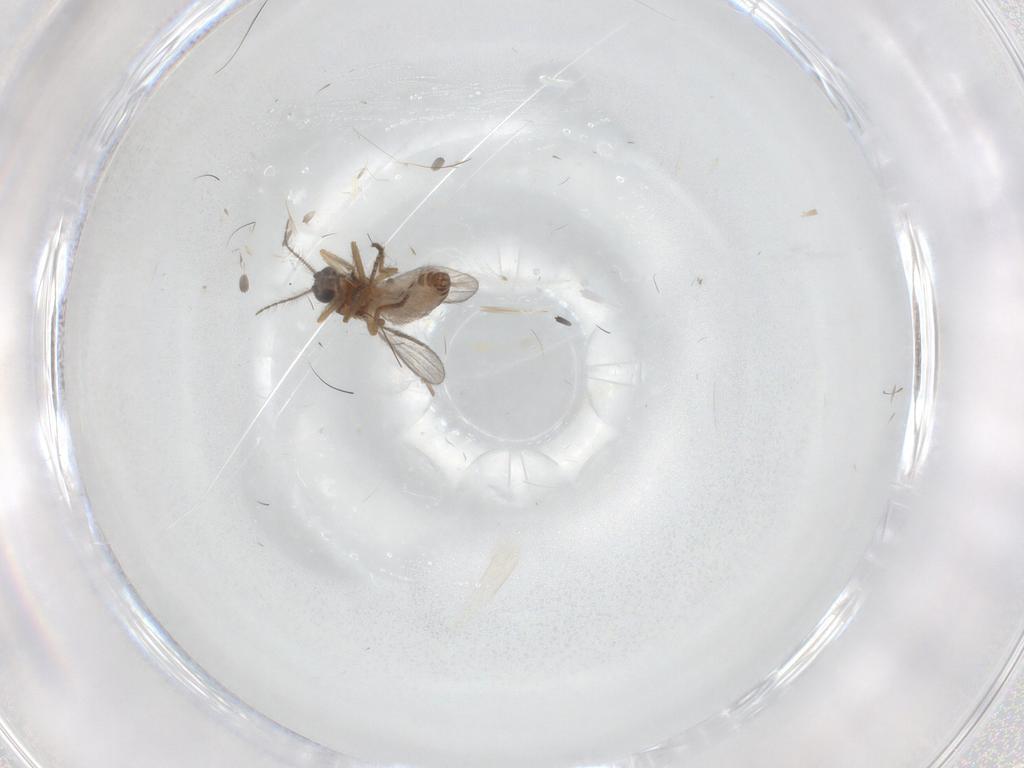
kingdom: Animalia
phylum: Arthropoda
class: Insecta
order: Diptera
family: Ceratopogonidae
